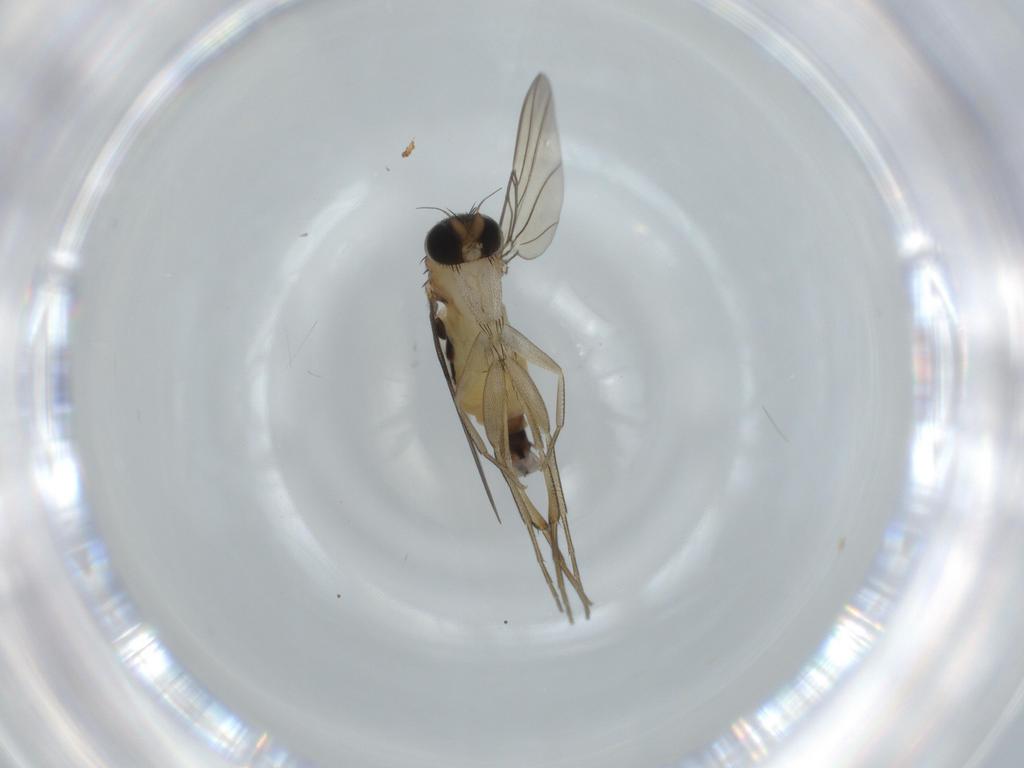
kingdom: Animalia
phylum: Arthropoda
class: Insecta
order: Diptera
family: Phoridae
